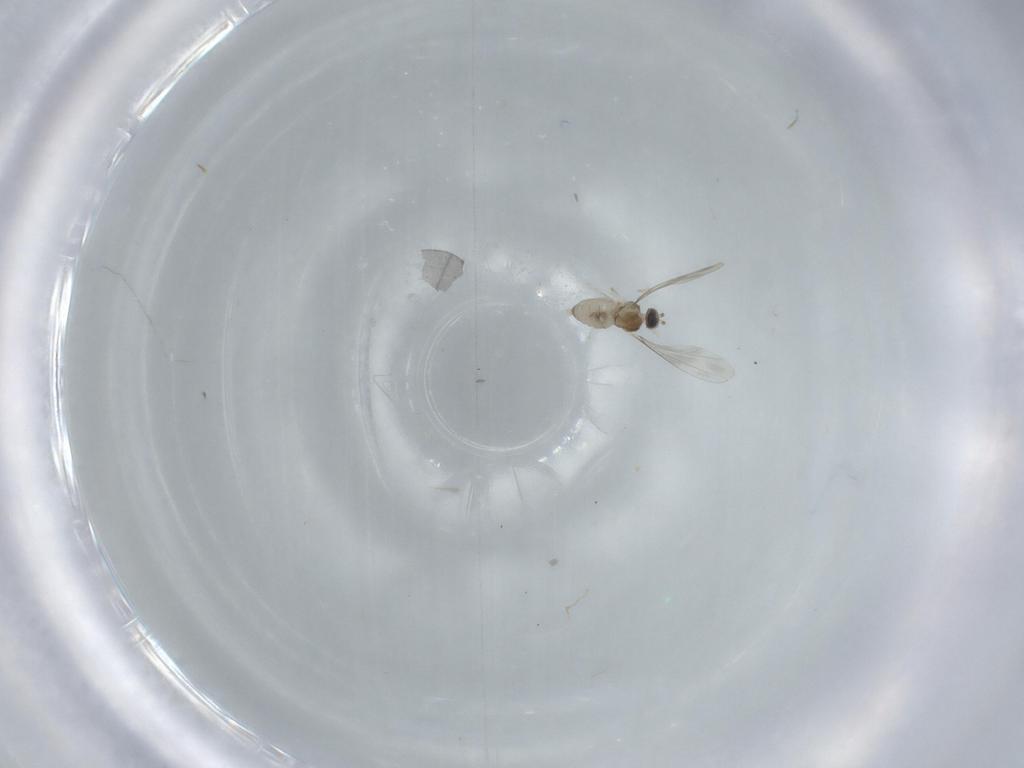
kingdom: Animalia
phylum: Arthropoda
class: Insecta
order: Diptera
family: Cecidomyiidae
